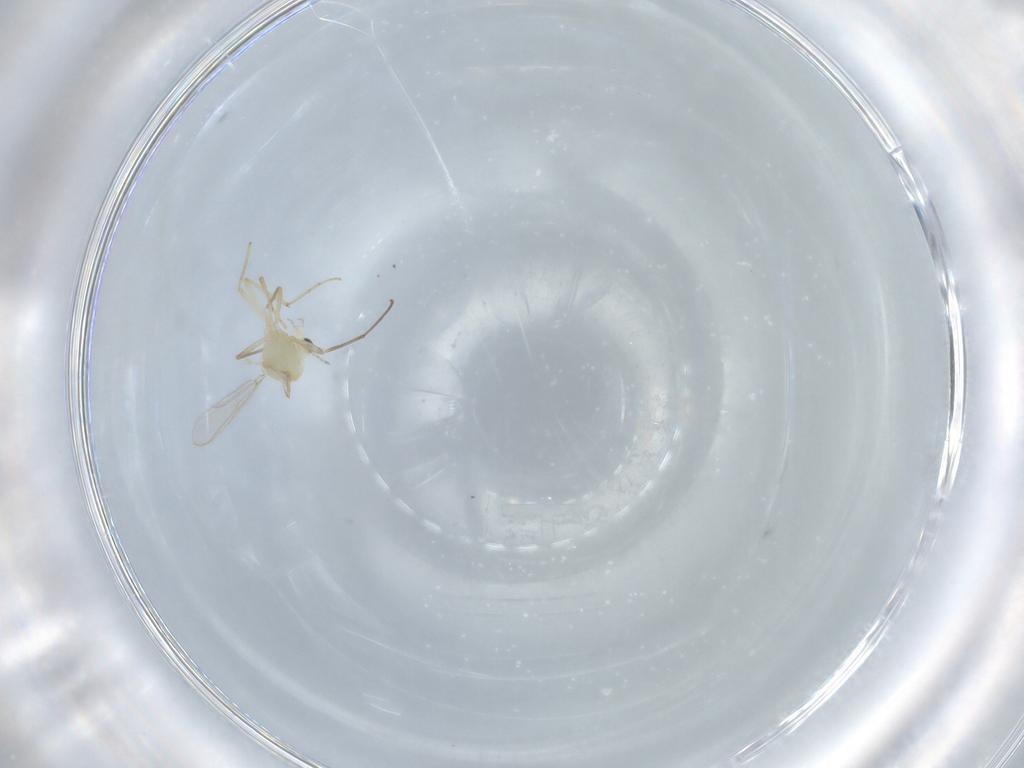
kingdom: Animalia
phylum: Arthropoda
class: Insecta
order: Diptera
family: Chironomidae
